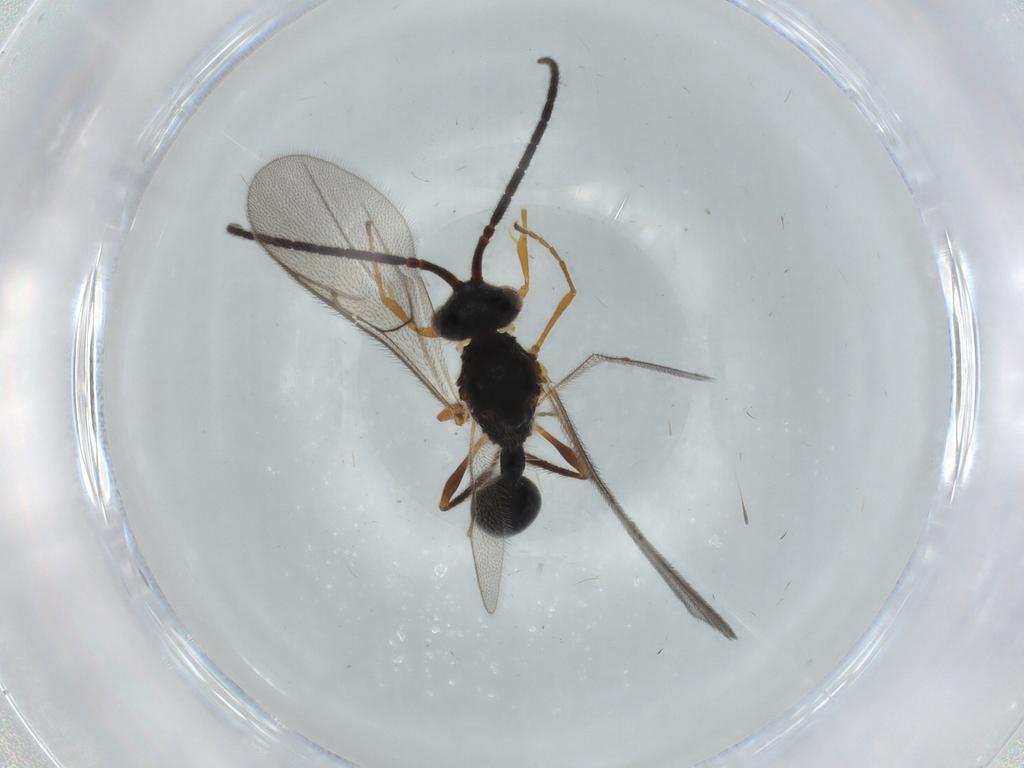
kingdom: Animalia
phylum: Arthropoda
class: Insecta
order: Hymenoptera
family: Diapriidae
